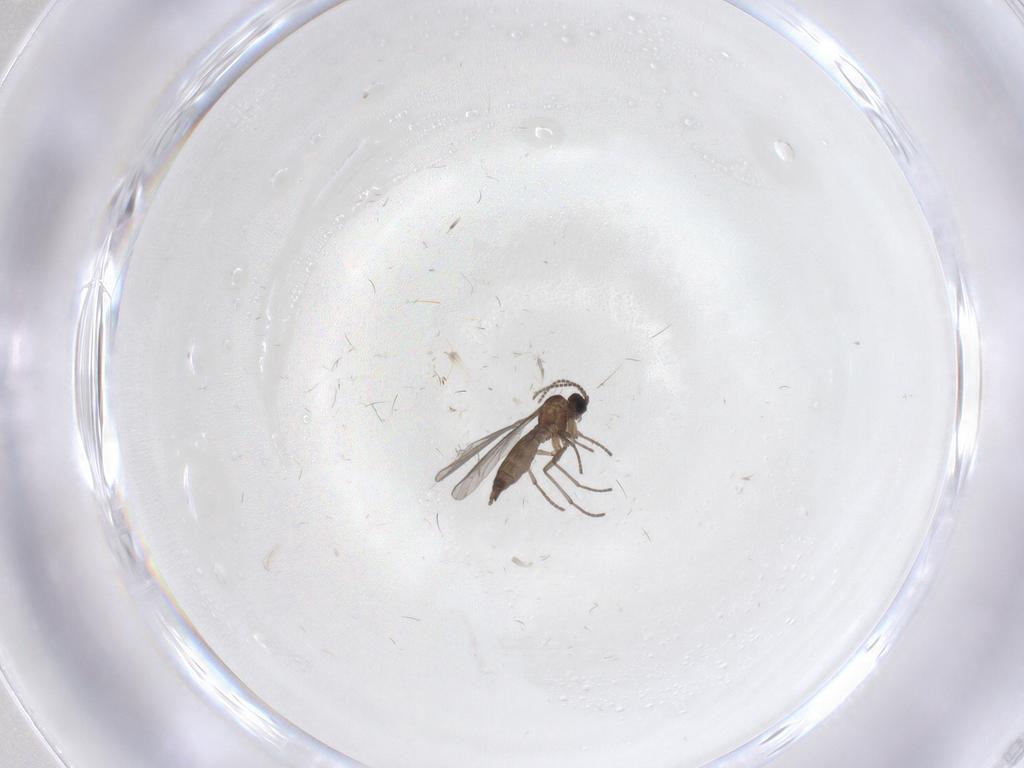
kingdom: Animalia
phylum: Arthropoda
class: Insecta
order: Diptera
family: Sciaridae
